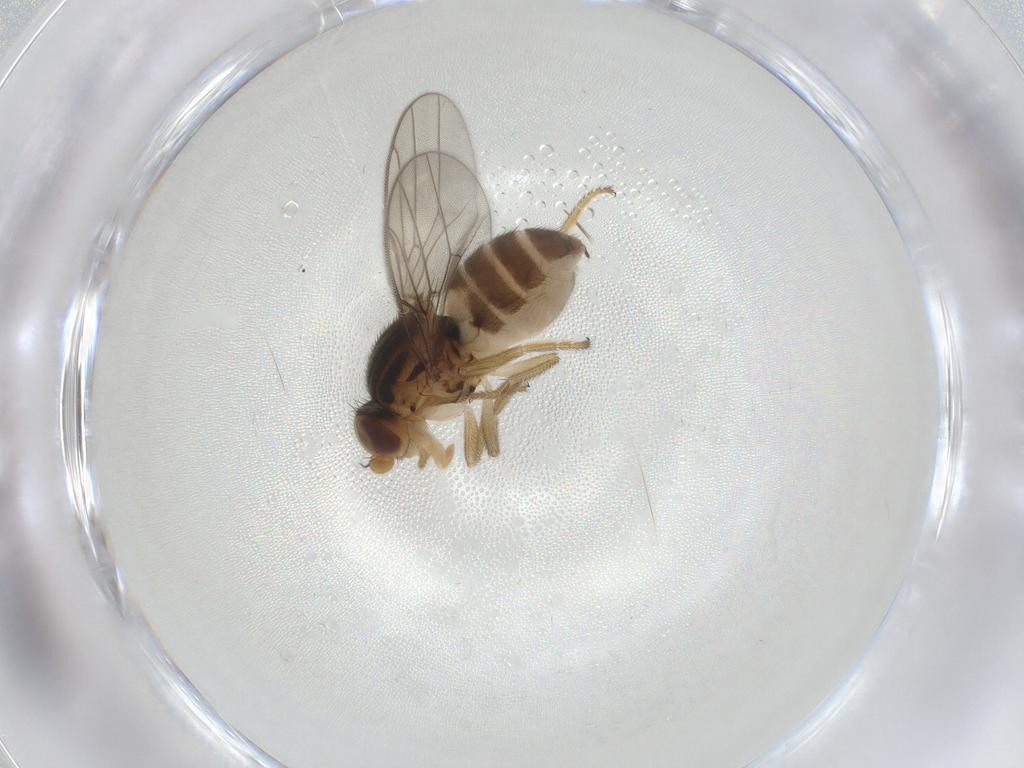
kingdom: Animalia
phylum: Arthropoda
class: Insecta
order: Diptera
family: Chloropidae
